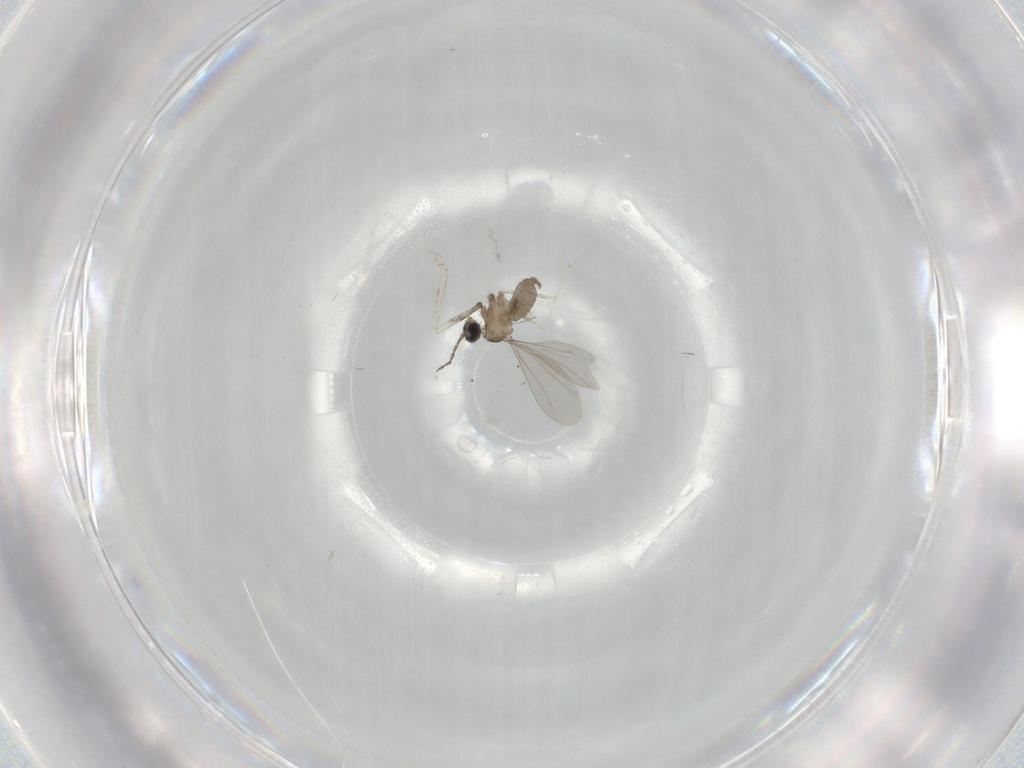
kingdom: Animalia
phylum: Arthropoda
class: Insecta
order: Diptera
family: Cecidomyiidae
